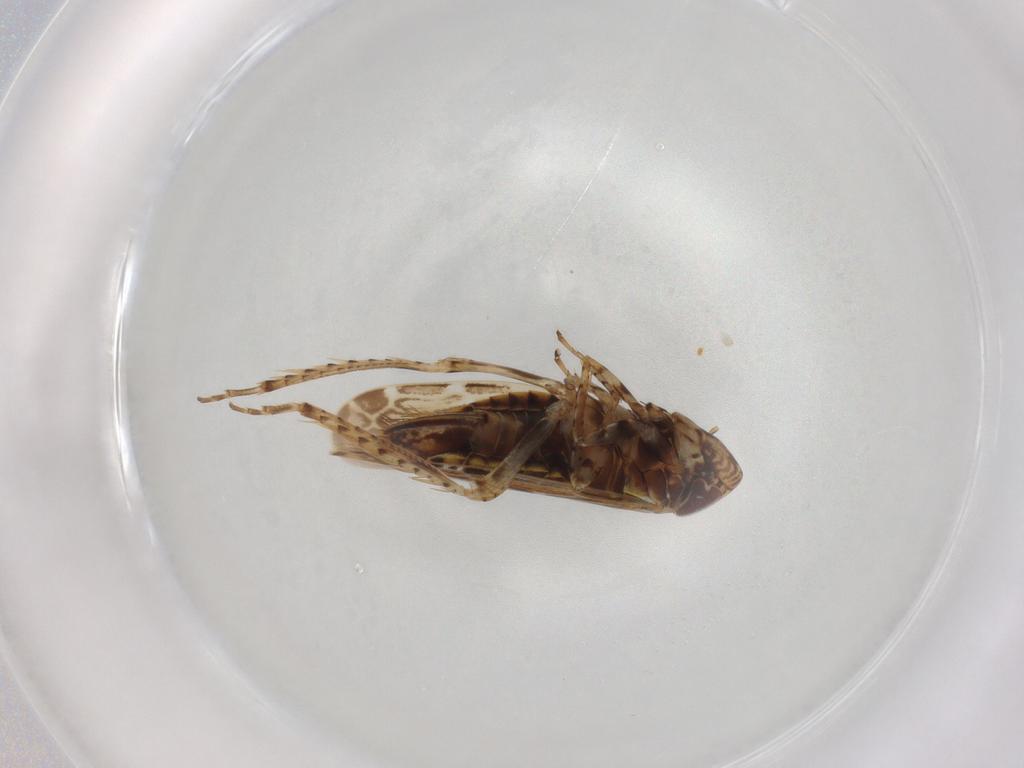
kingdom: Animalia
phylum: Arthropoda
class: Insecta
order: Hemiptera
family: Cicadellidae
